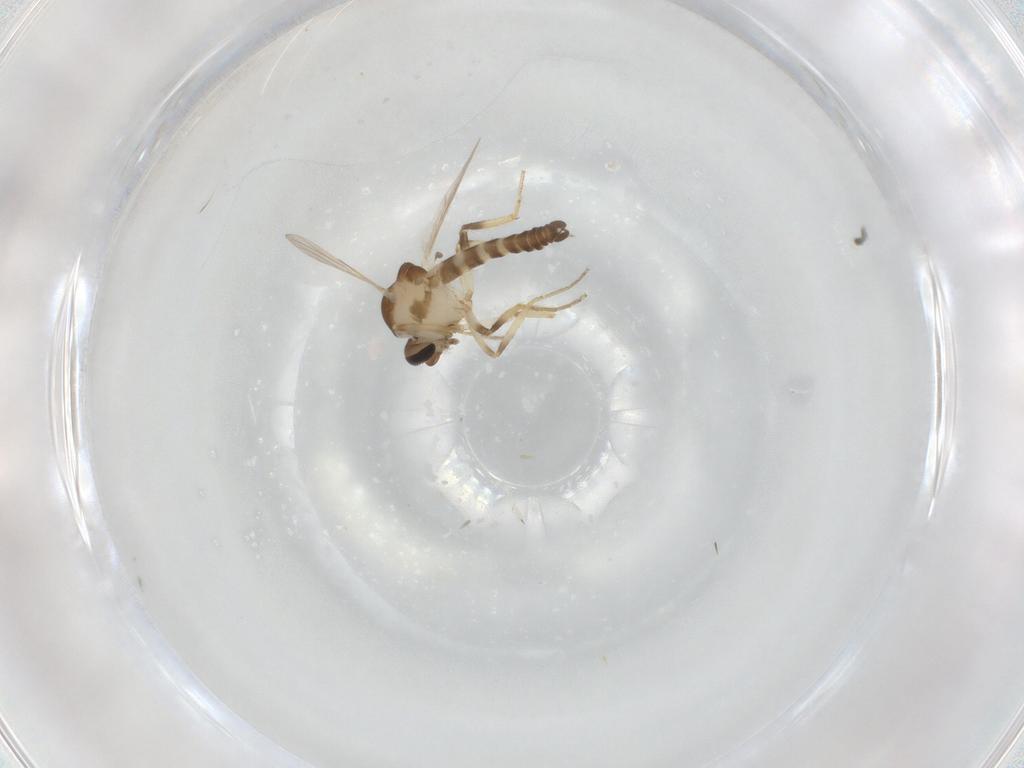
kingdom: Animalia
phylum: Arthropoda
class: Insecta
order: Diptera
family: Ceratopogonidae
